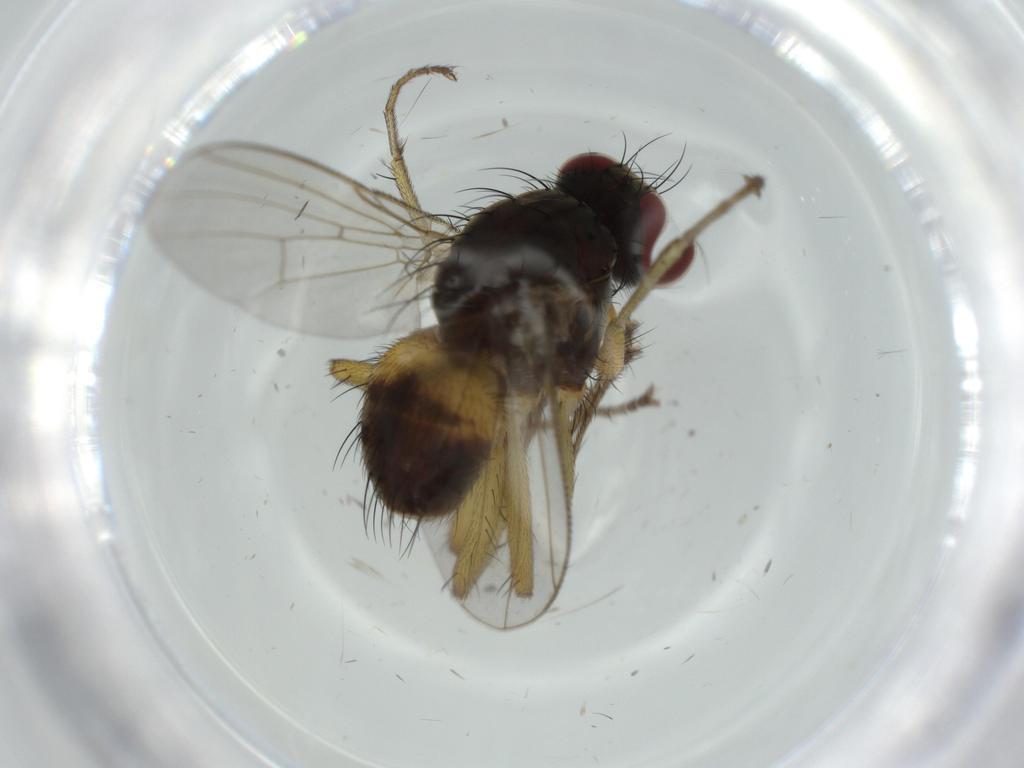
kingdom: Animalia
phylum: Arthropoda
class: Insecta
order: Diptera
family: Muscidae
